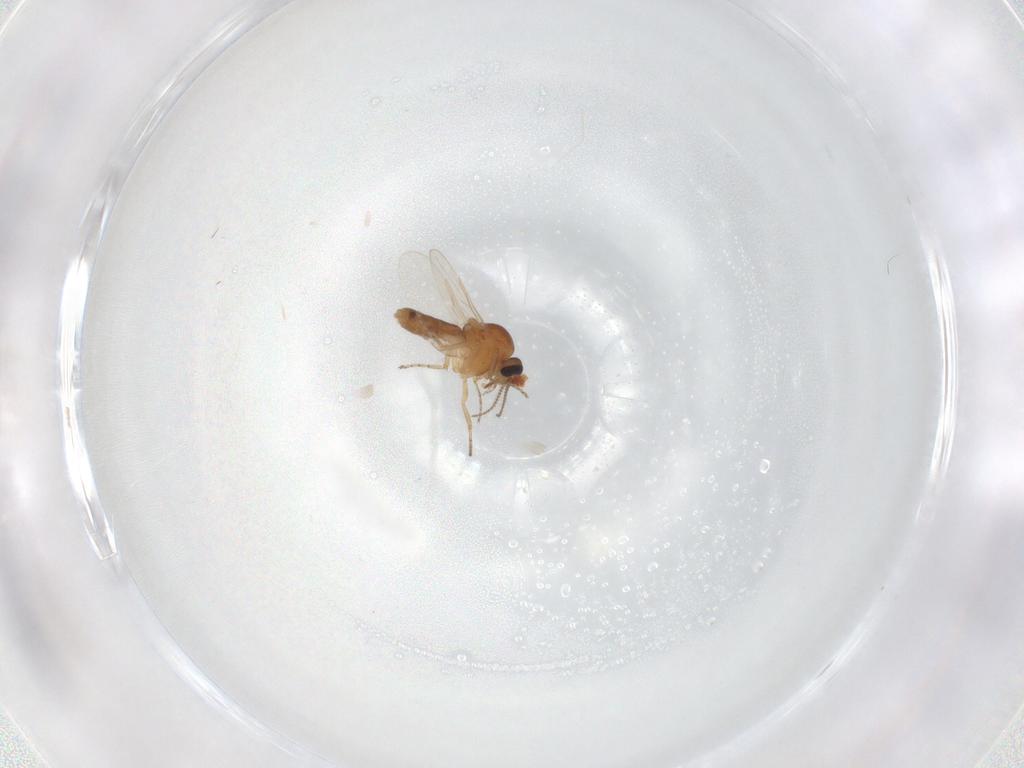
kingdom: Animalia
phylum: Arthropoda
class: Insecta
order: Diptera
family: Ceratopogonidae
